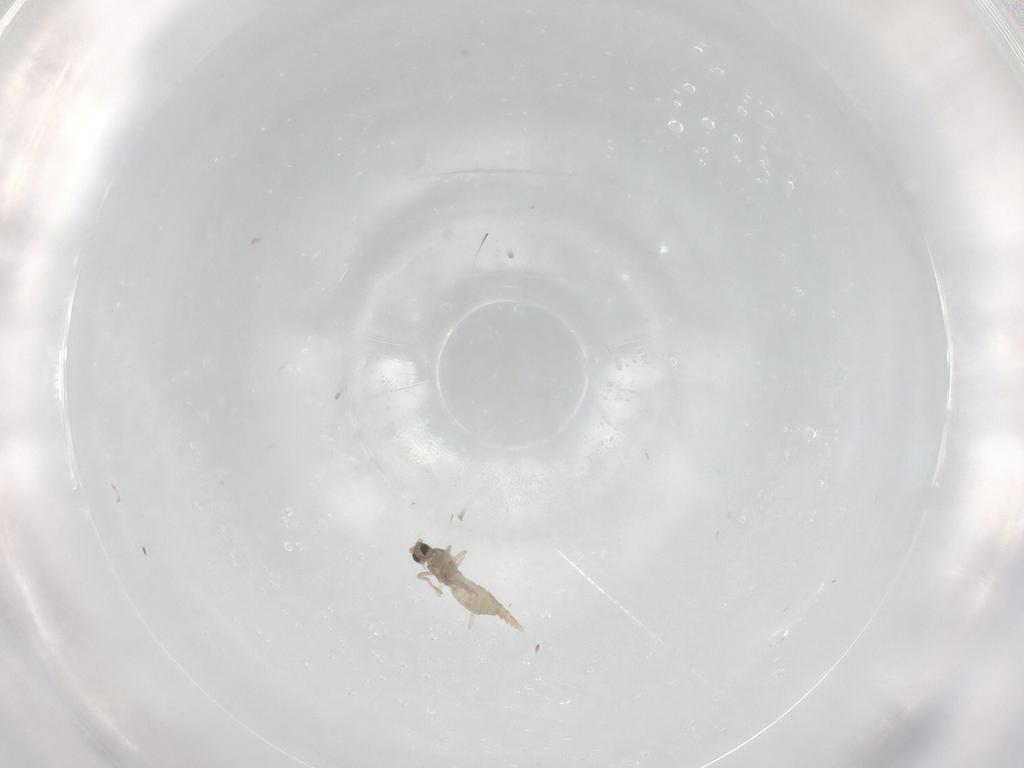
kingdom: Animalia
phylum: Arthropoda
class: Insecta
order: Diptera
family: Cecidomyiidae
